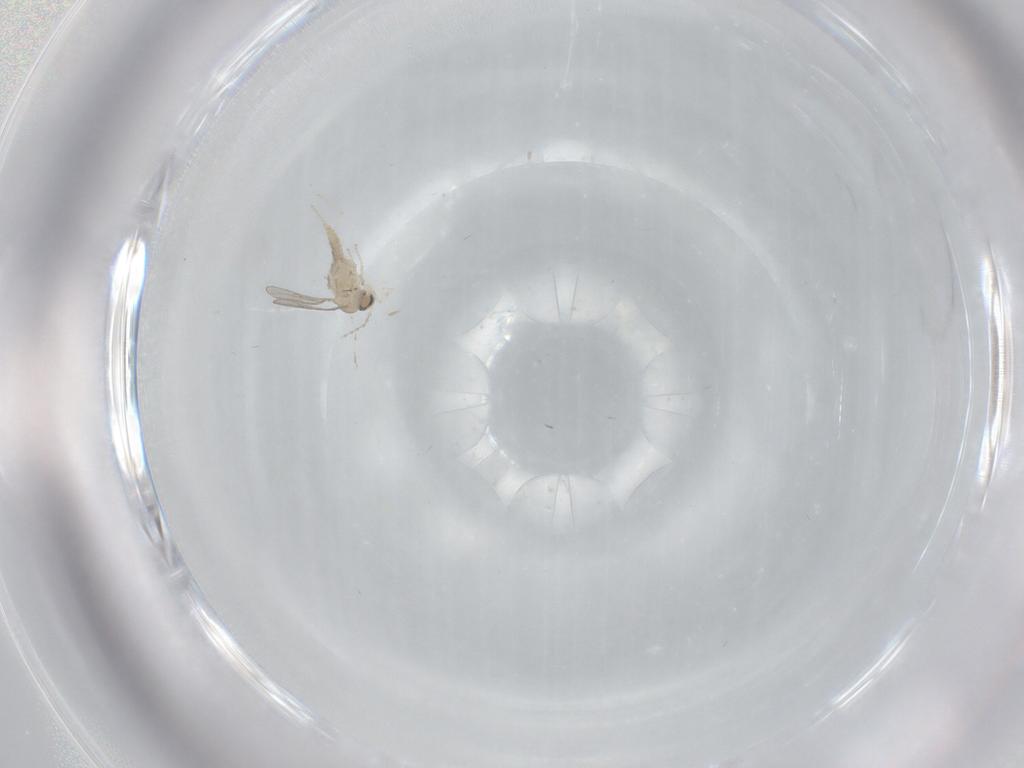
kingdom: Animalia
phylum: Arthropoda
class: Insecta
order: Diptera
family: Cecidomyiidae
